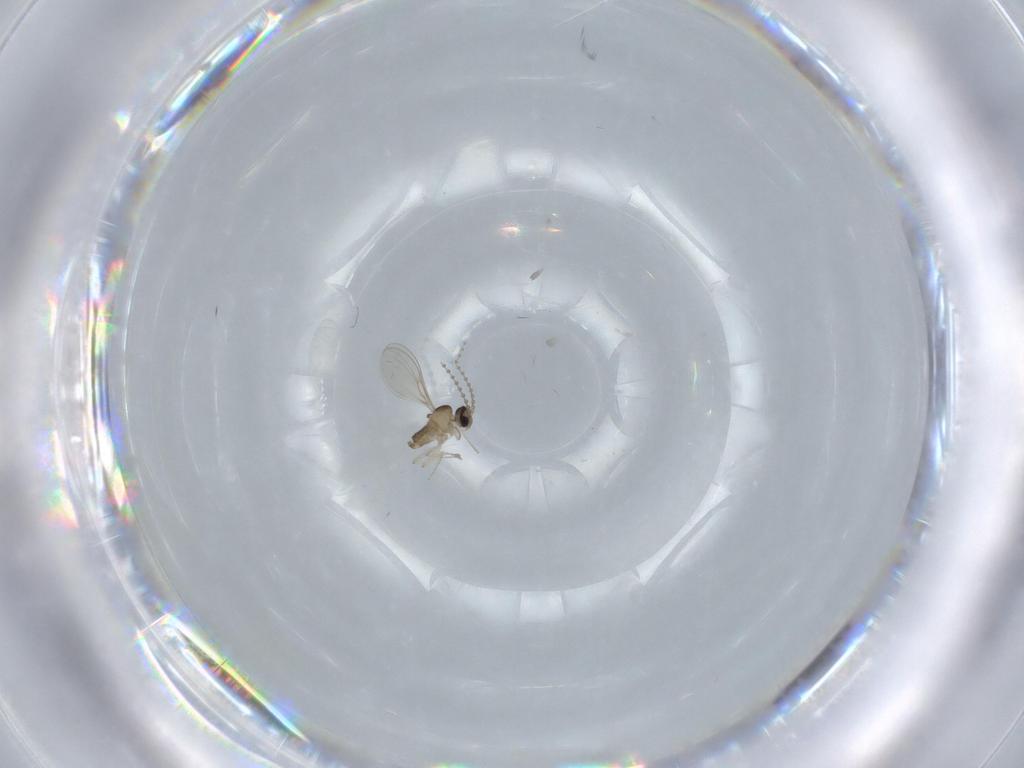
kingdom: Animalia
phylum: Arthropoda
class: Insecta
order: Diptera
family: Cecidomyiidae
